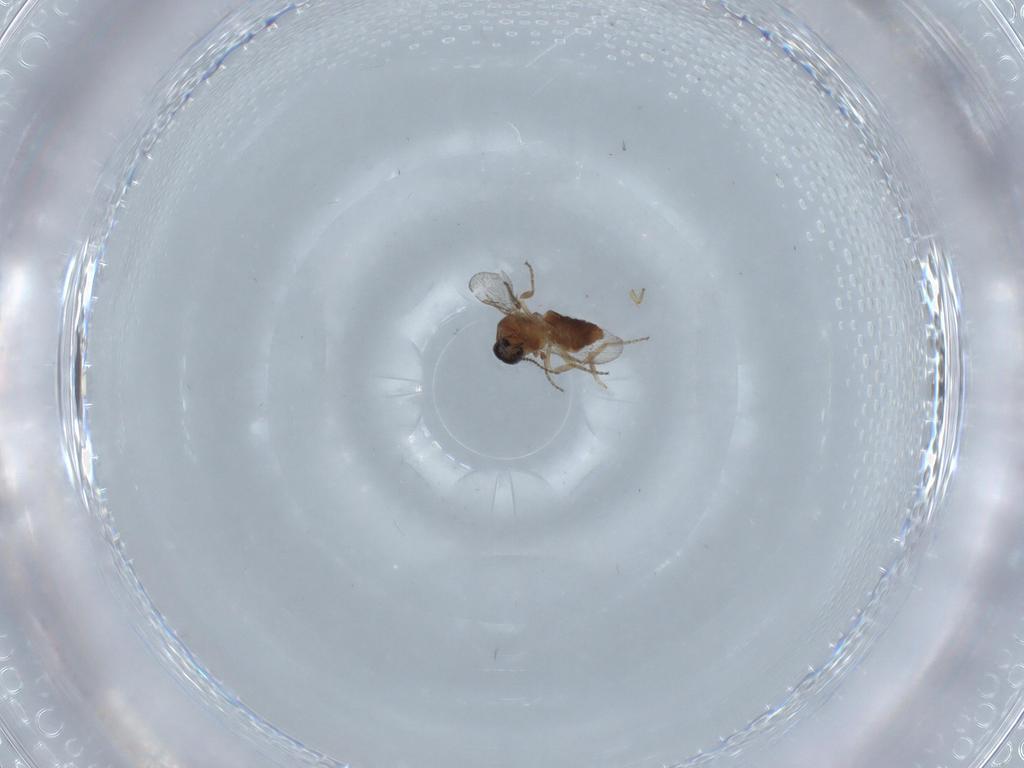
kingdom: Animalia
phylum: Arthropoda
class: Insecta
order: Diptera
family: Ceratopogonidae
